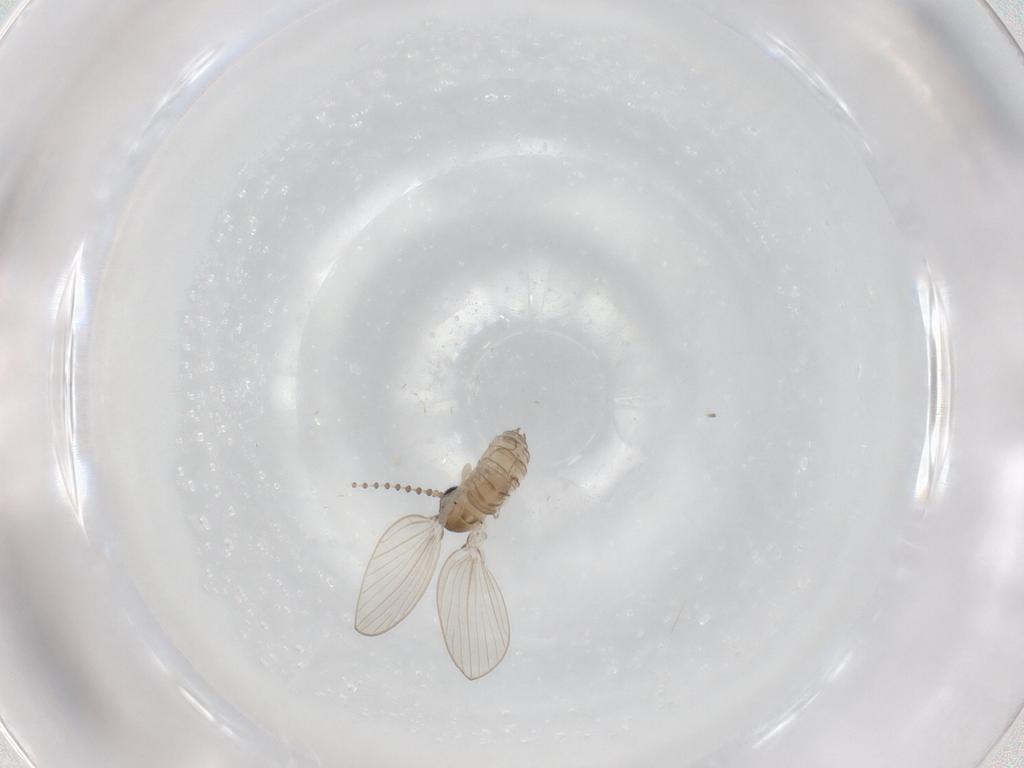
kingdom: Animalia
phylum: Arthropoda
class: Insecta
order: Diptera
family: Psychodidae
